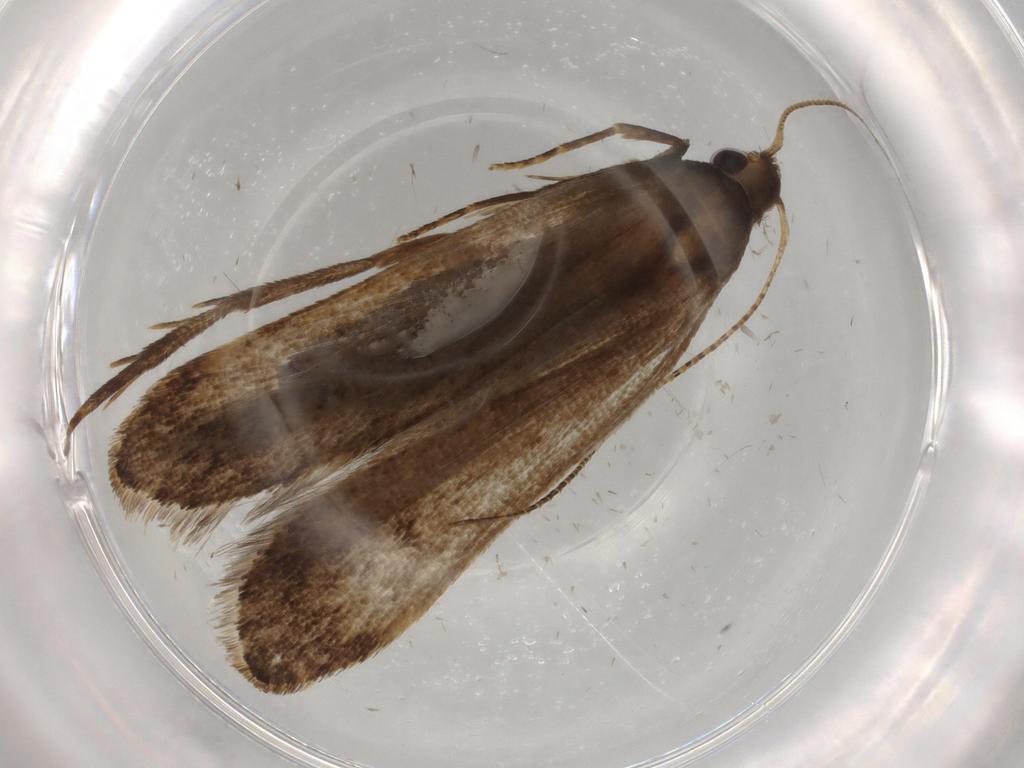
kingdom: Animalia
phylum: Arthropoda
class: Insecta
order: Lepidoptera
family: Gelechiidae
